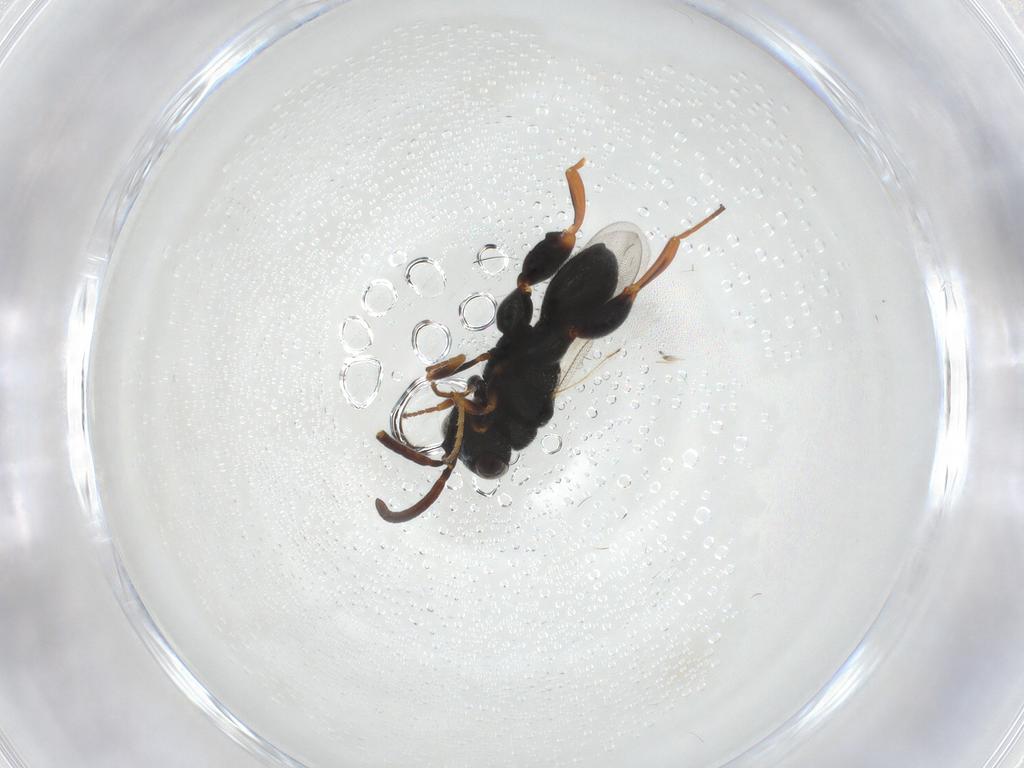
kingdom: Animalia
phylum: Arthropoda
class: Insecta
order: Hymenoptera
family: Chalcididae
